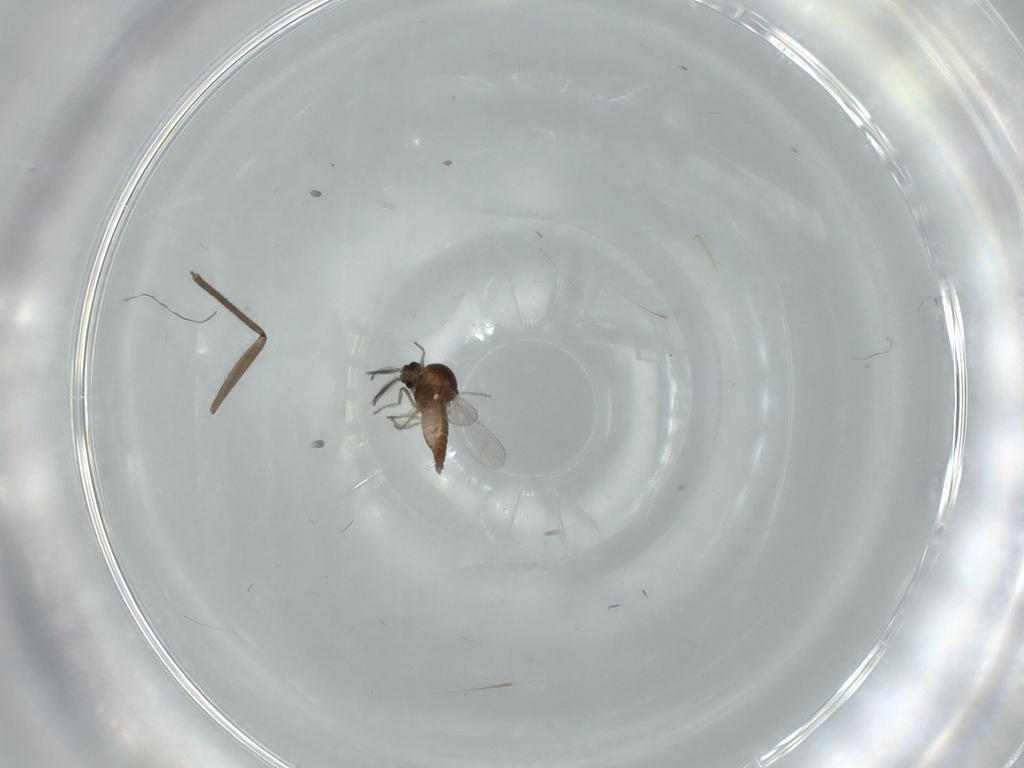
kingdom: Animalia
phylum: Arthropoda
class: Insecta
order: Diptera
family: Ceratopogonidae
